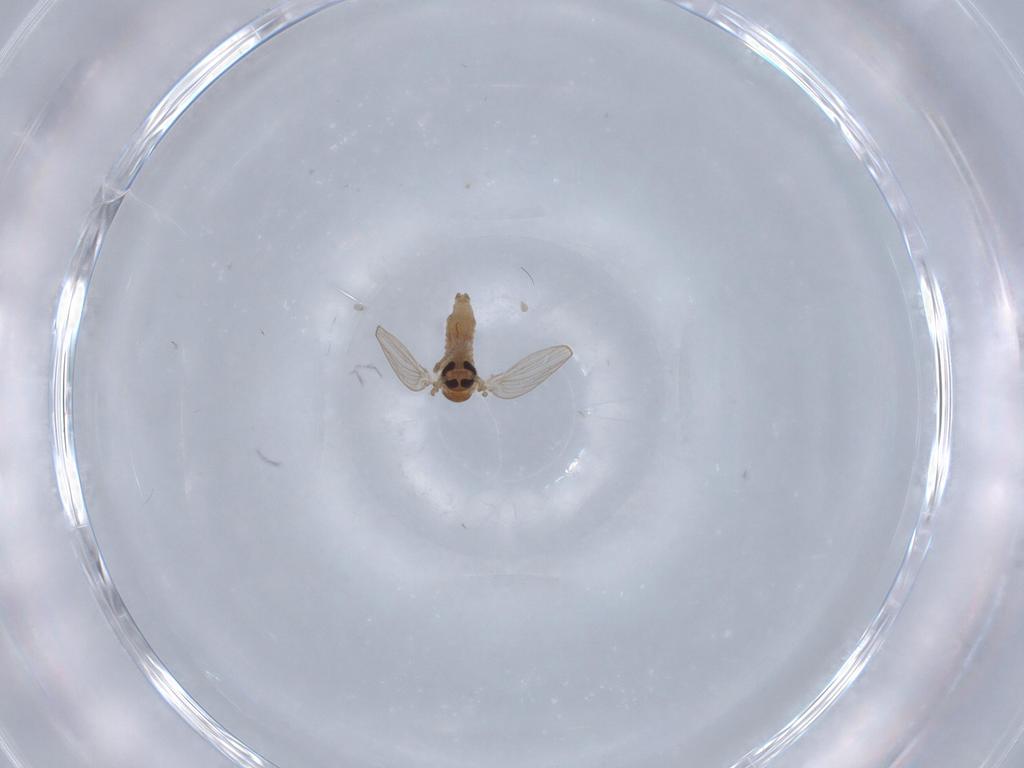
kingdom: Animalia
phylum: Arthropoda
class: Insecta
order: Diptera
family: Psychodidae
